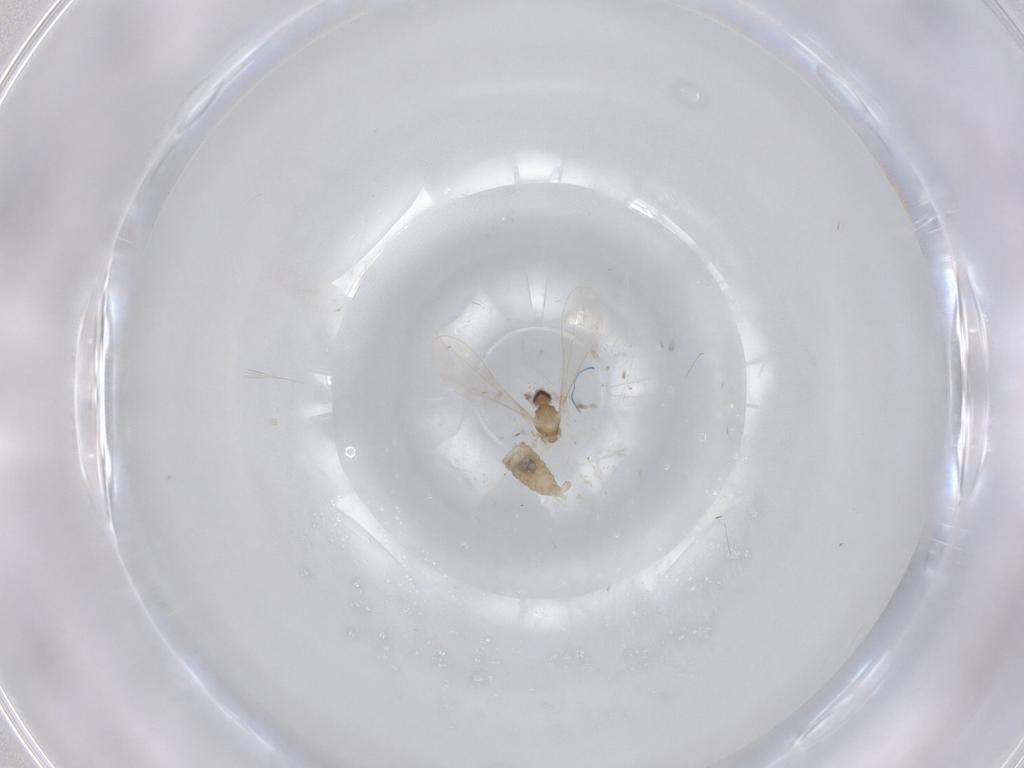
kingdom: Animalia
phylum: Arthropoda
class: Insecta
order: Diptera
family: Cecidomyiidae
